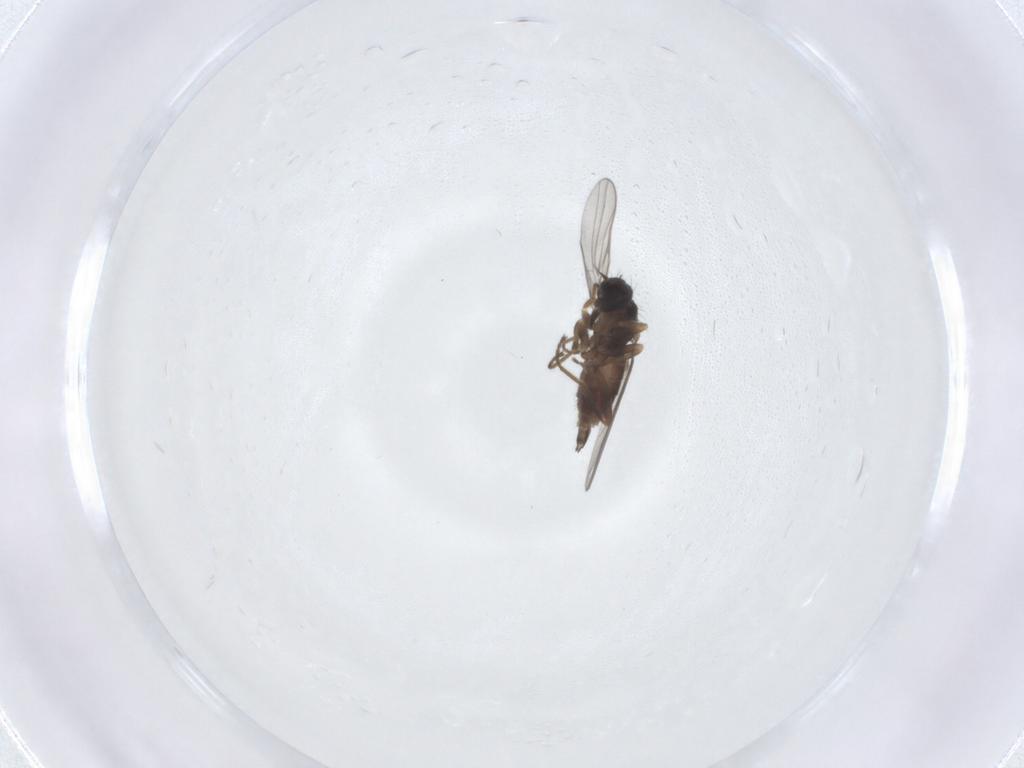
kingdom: Animalia
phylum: Arthropoda
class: Insecta
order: Diptera
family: Hybotidae
